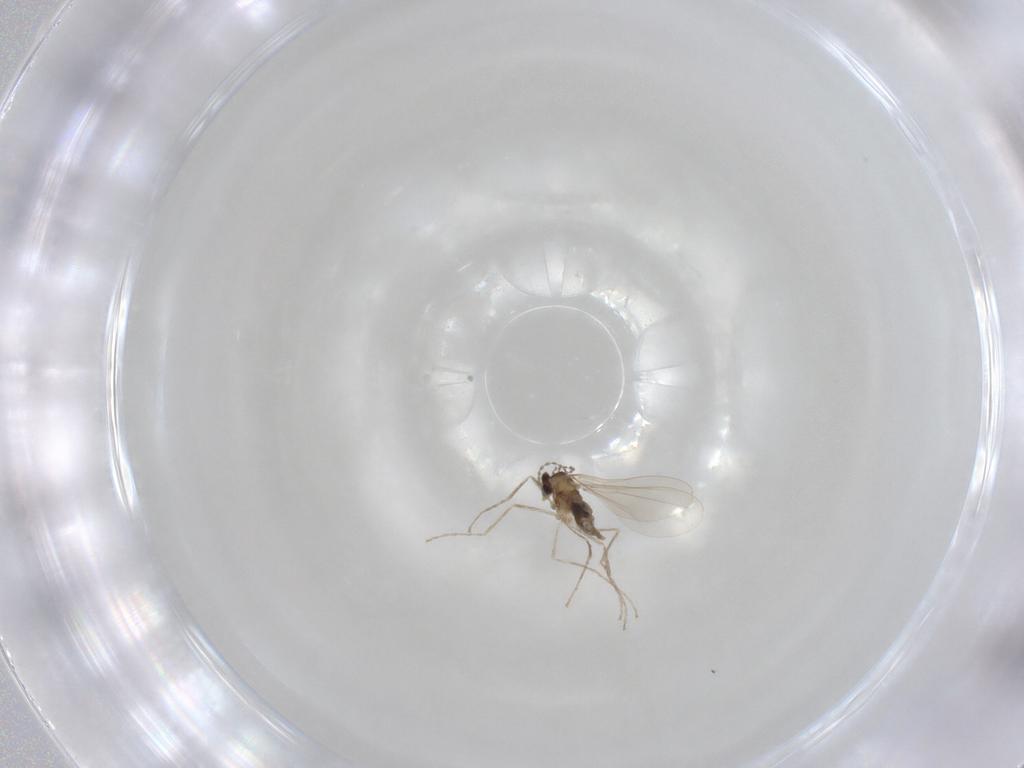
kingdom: Animalia
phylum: Arthropoda
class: Insecta
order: Diptera
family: Cecidomyiidae
